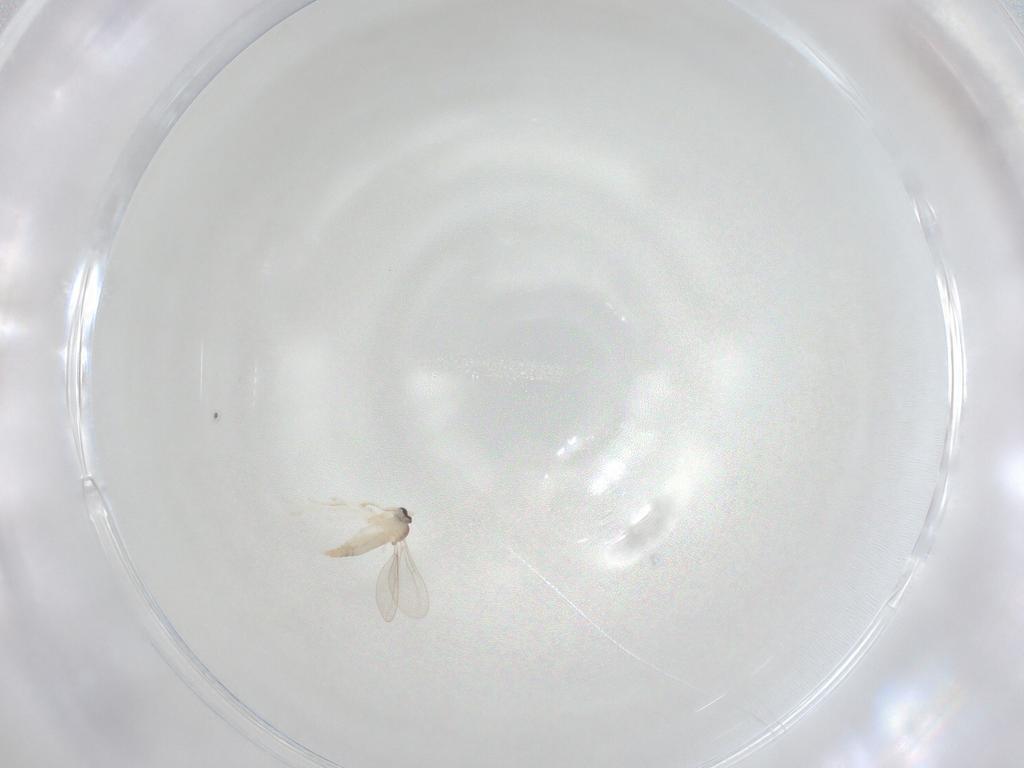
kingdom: Animalia
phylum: Arthropoda
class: Insecta
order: Diptera
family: Cecidomyiidae
